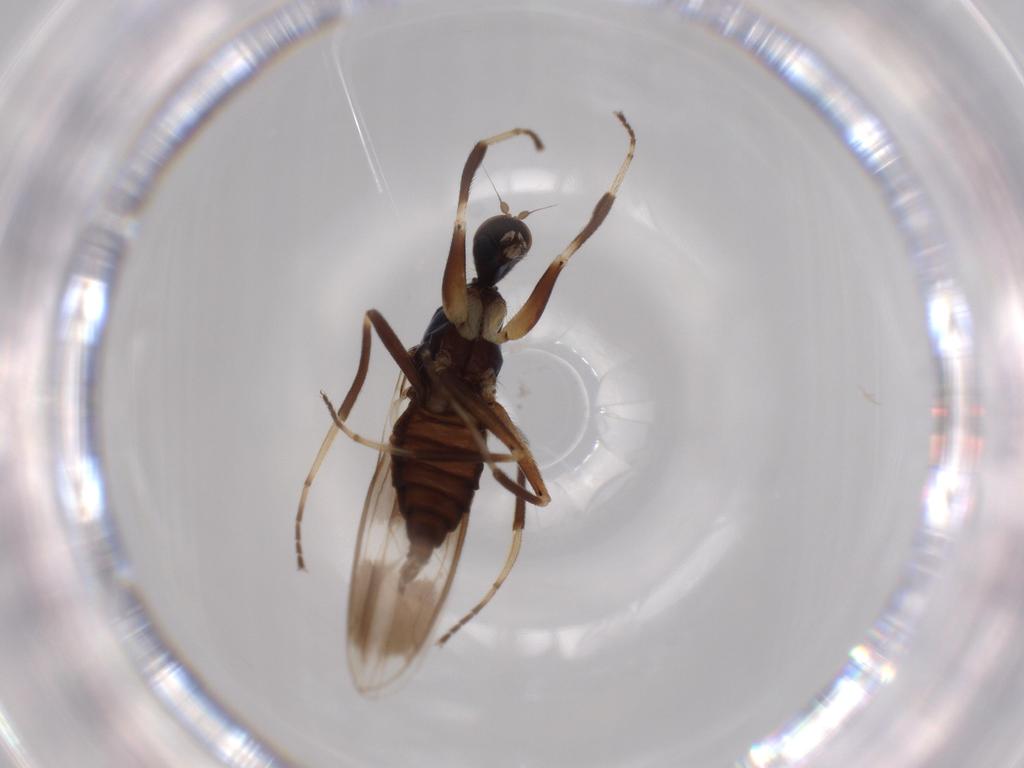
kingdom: Animalia
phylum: Arthropoda
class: Insecta
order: Diptera
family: Hybotidae
